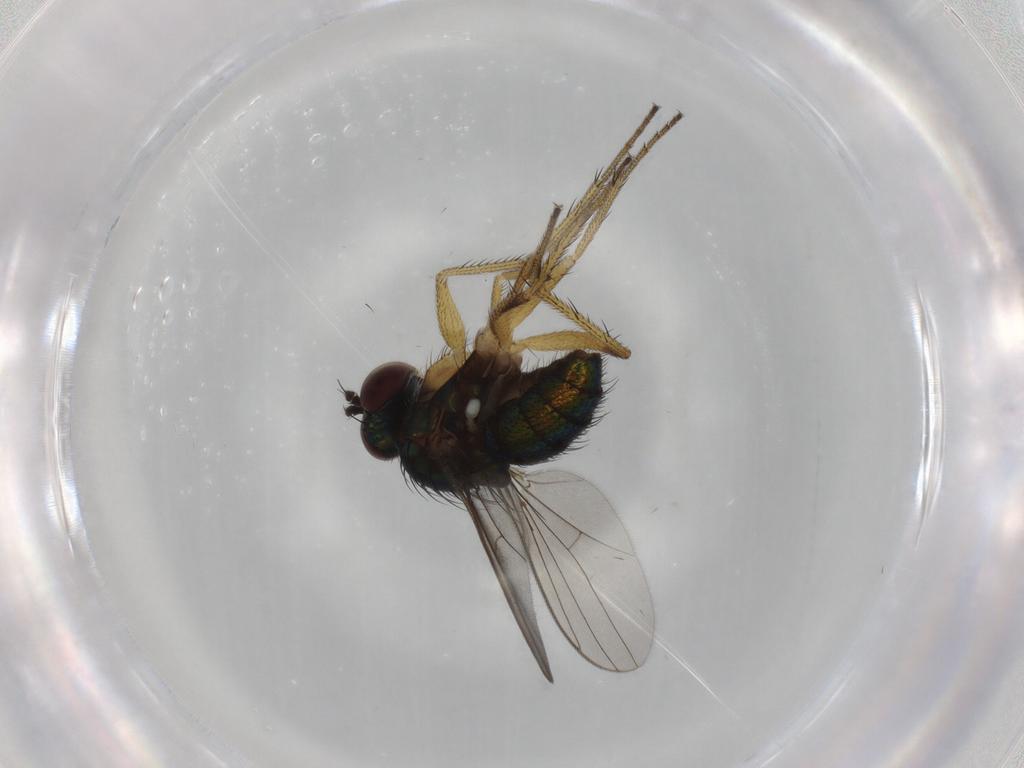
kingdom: Animalia
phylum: Arthropoda
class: Insecta
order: Diptera
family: Dolichopodidae
